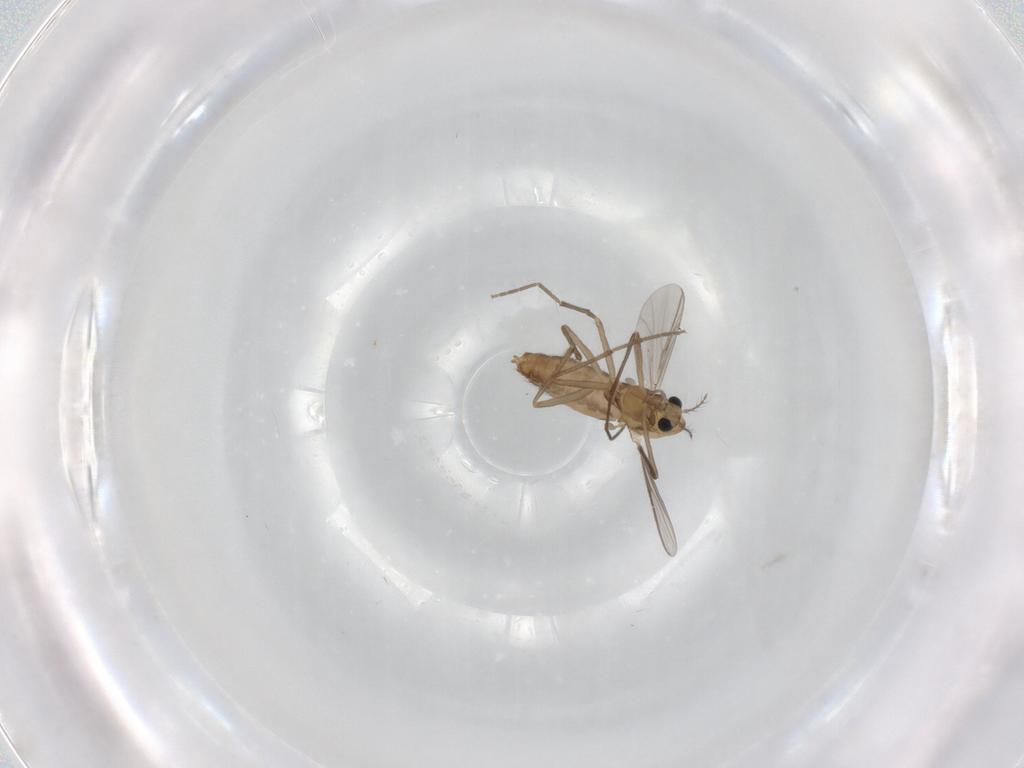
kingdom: Animalia
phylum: Arthropoda
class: Insecta
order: Diptera
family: Chironomidae
